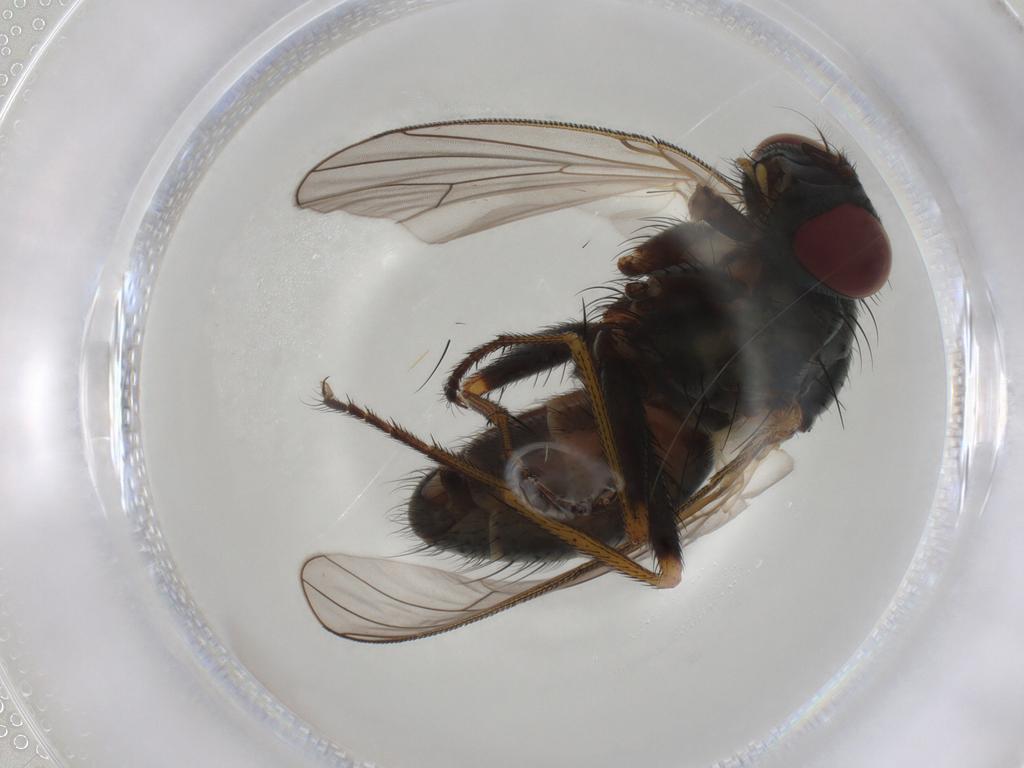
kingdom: Animalia
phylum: Arthropoda
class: Insecta
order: Diptera
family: Muscidae
